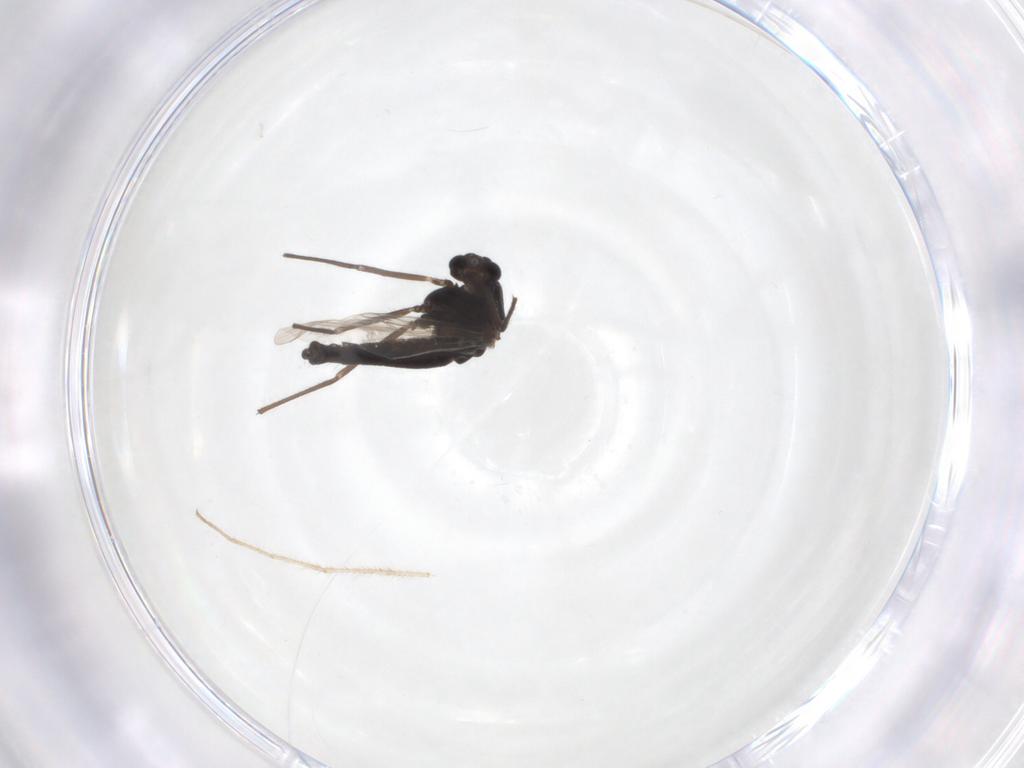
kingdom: Animalia
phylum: Arthropoda
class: Insecta
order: Diptera
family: Chironomidae
